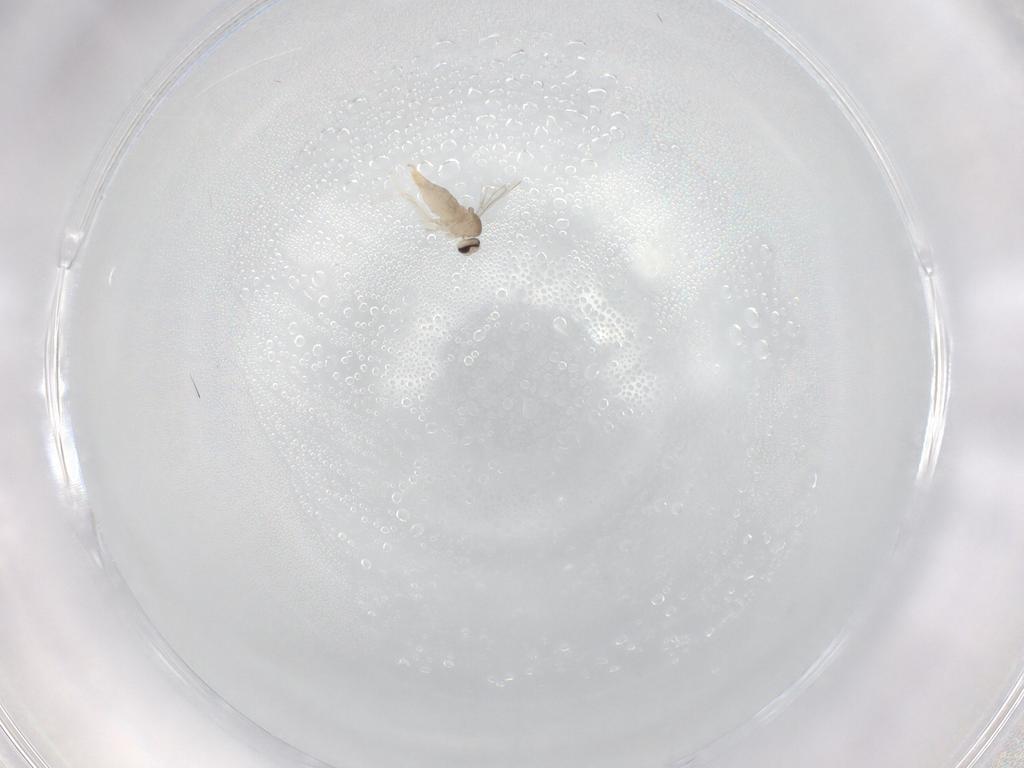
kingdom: Animalia
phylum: Arthropoda
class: Insecta
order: Diptera
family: Cecidomyiidae
